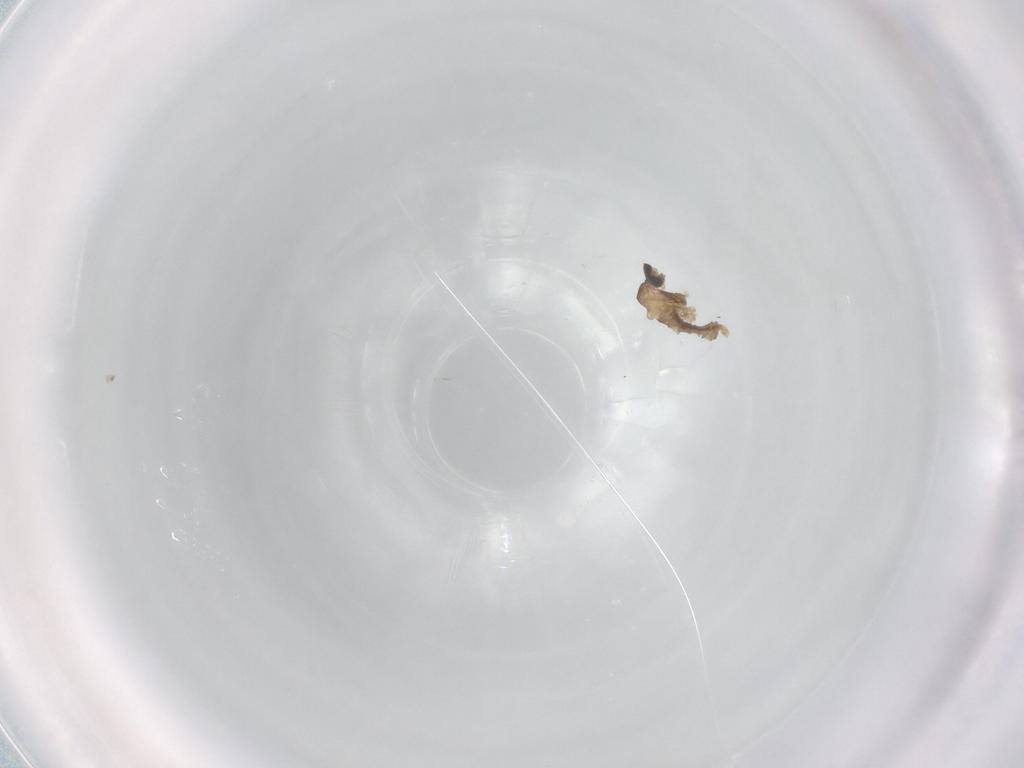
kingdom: Animalia
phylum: Arthropoda
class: Insecta
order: Diptera
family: Cecidomyiidae
